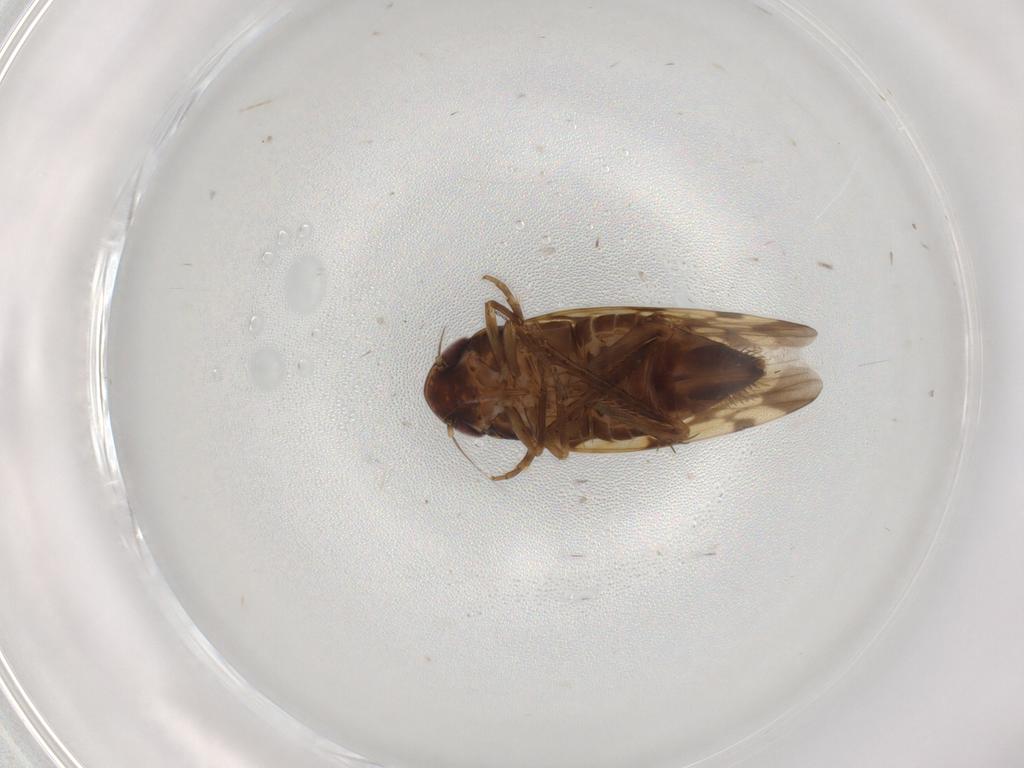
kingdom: Animalia
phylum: Arthropoda
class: Insecta
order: Hemiptera
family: Cicadellidae
